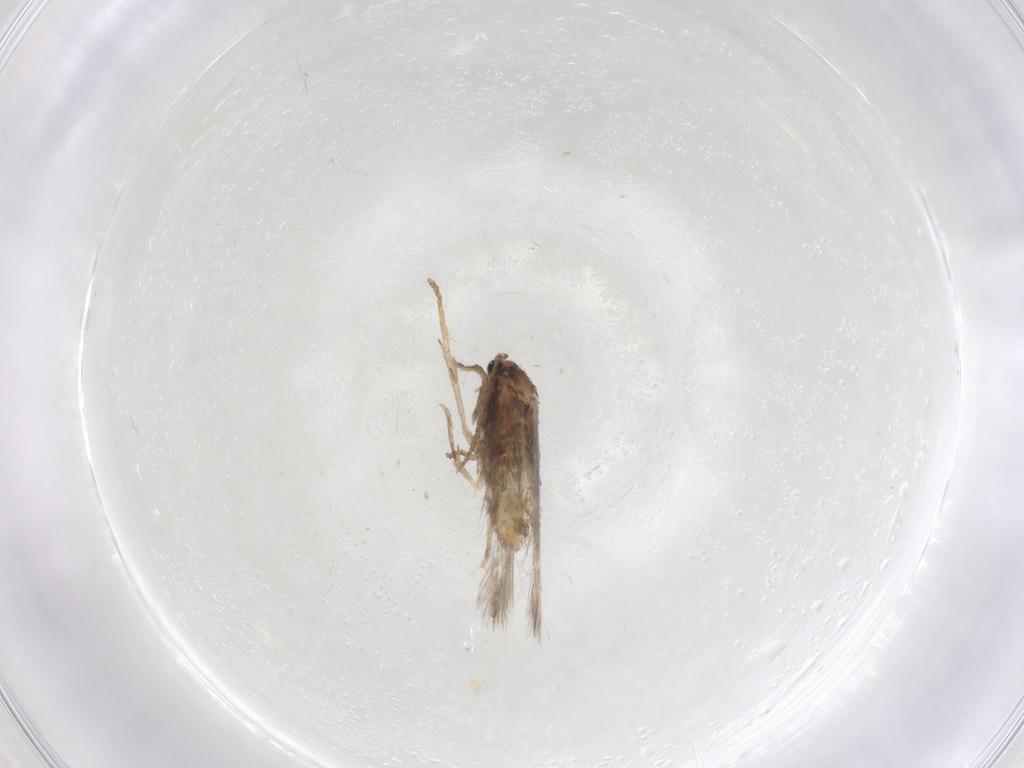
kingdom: Animalia
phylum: Arthropoda
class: Insecta
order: Lepidoptera
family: Nepticulidae
